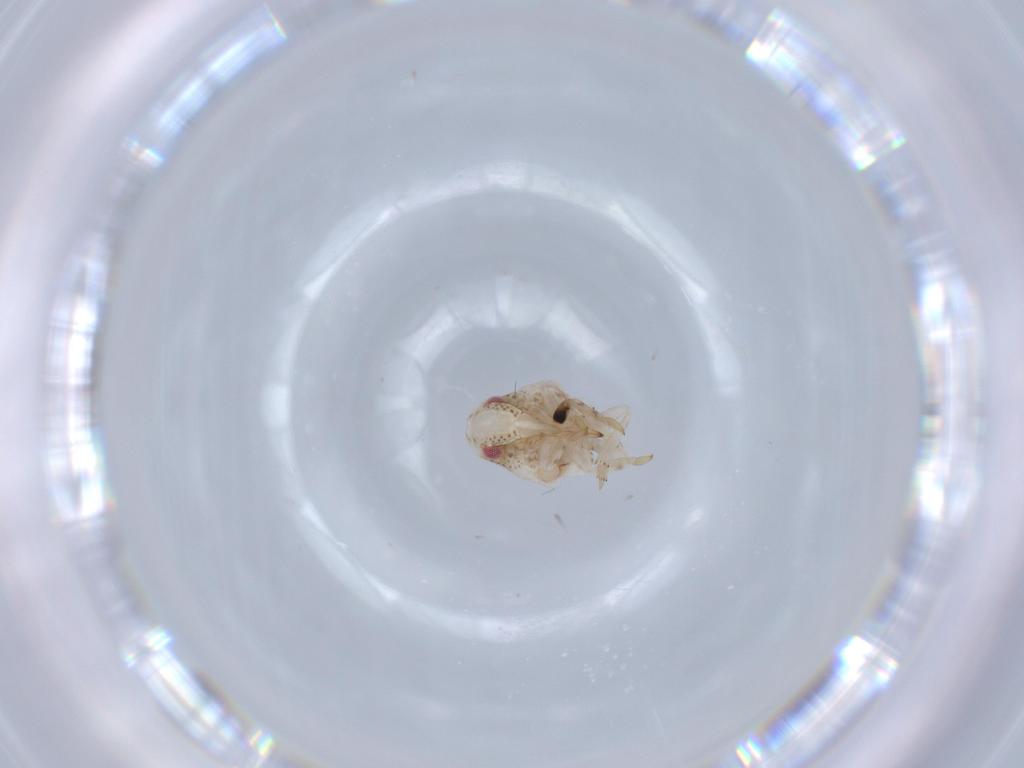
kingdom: Animalia
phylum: Arthropoda
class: Insecta
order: Hemiptera
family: Acanaloniidae
